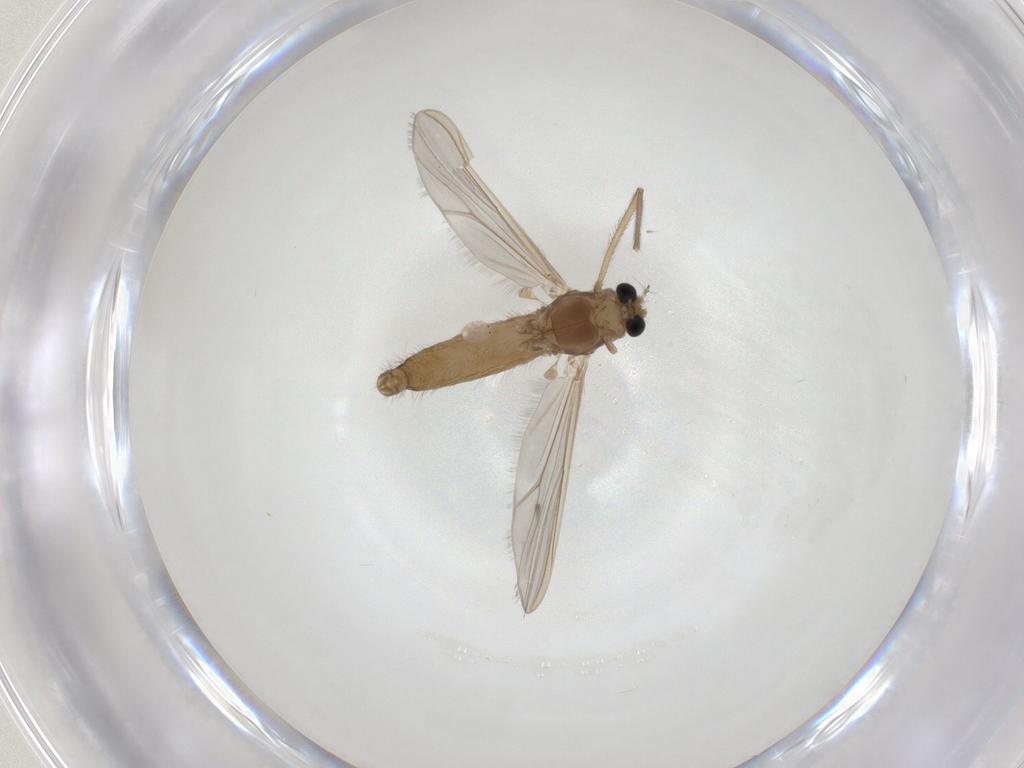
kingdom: Animalia
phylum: Arthropoda
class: Insecta
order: Diptera
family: Chironomidae
